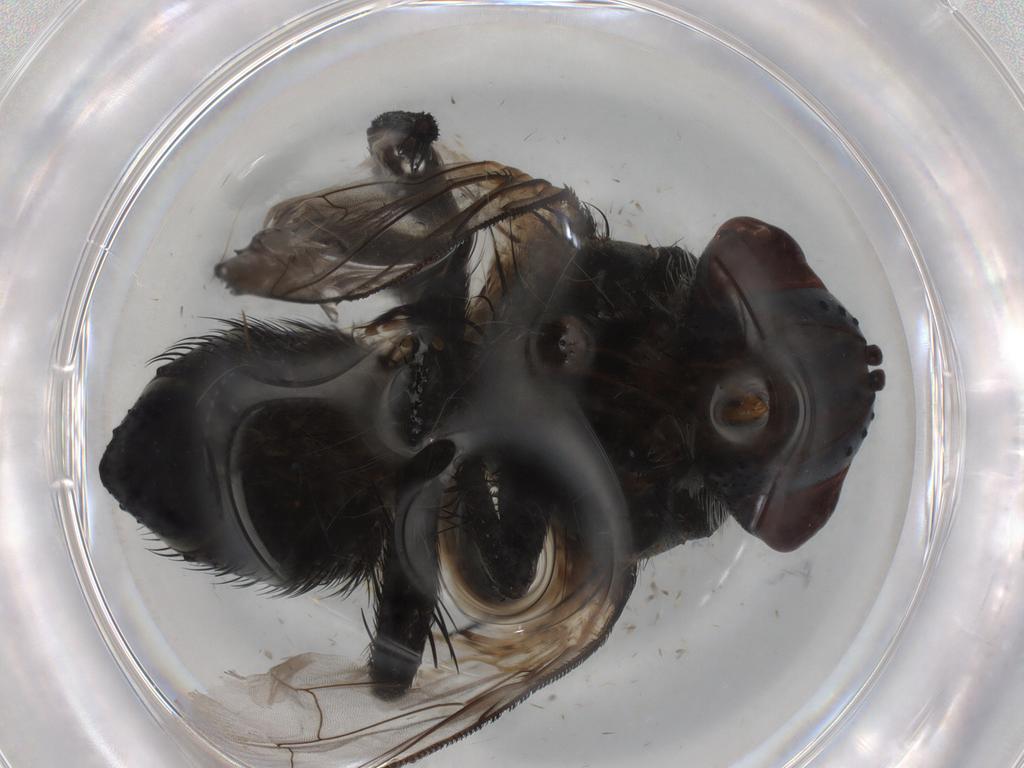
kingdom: Animalia
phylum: Arthropoda
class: Insecta
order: Diptera
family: Tachinidae
